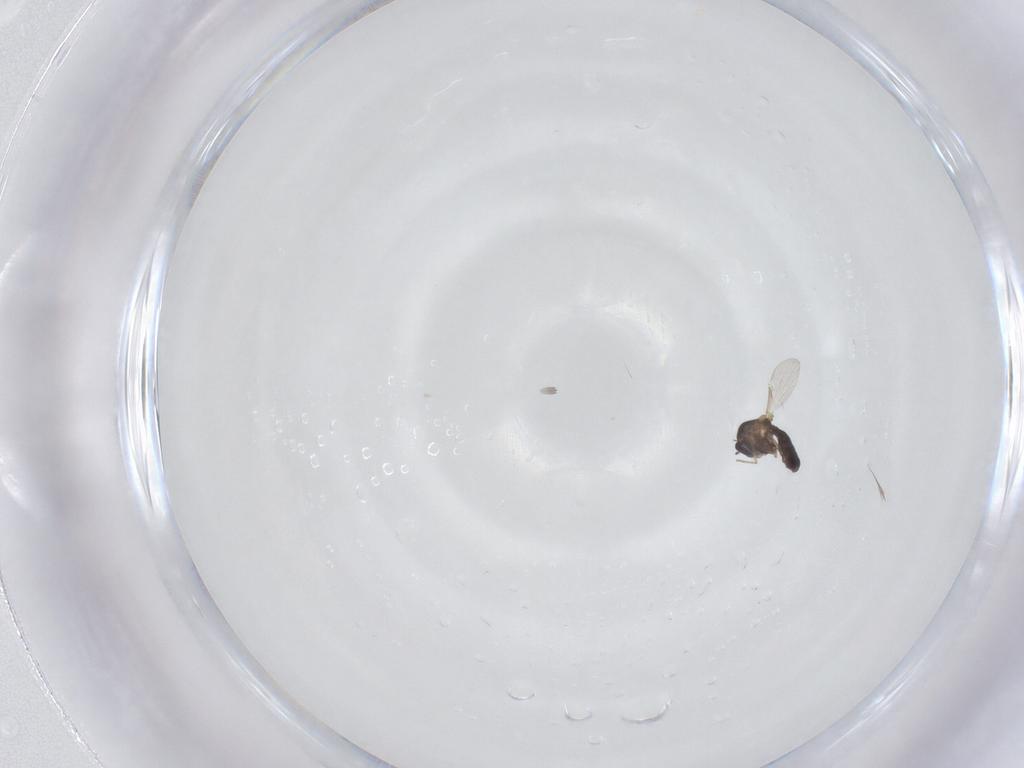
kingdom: Animalia
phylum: Arthropoda
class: Insecta
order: Diptera
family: Ceratopogonidae
